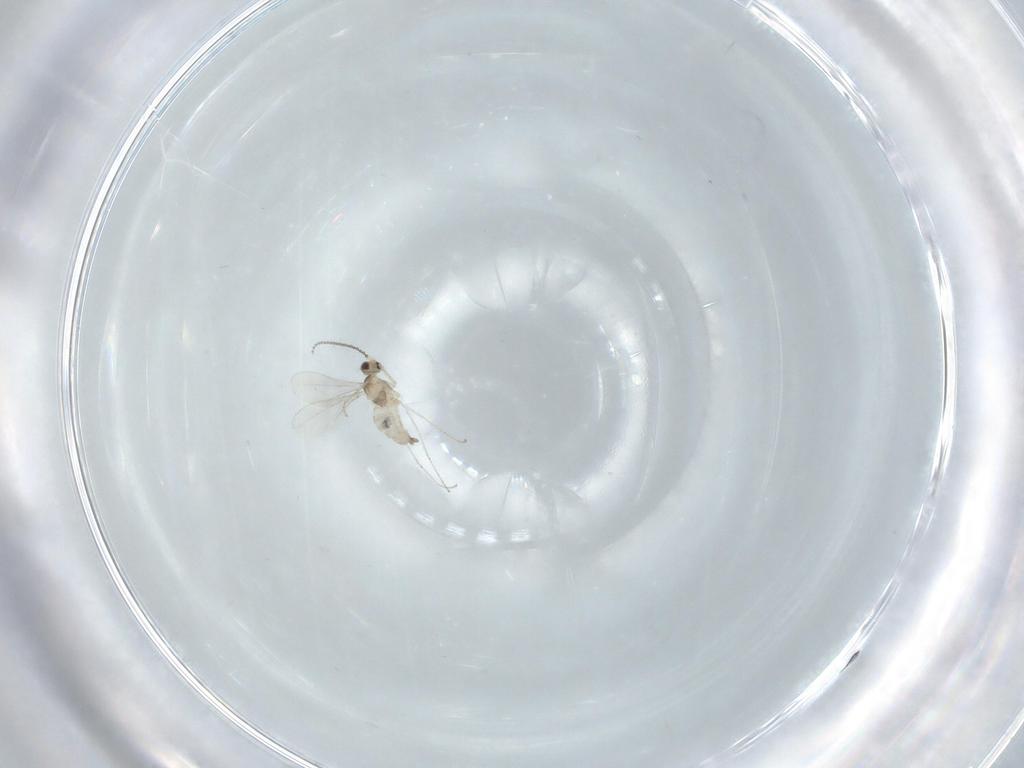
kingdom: Animalia
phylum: Arthropoda
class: Insecta
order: Diptera
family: Cecidomyiidae
